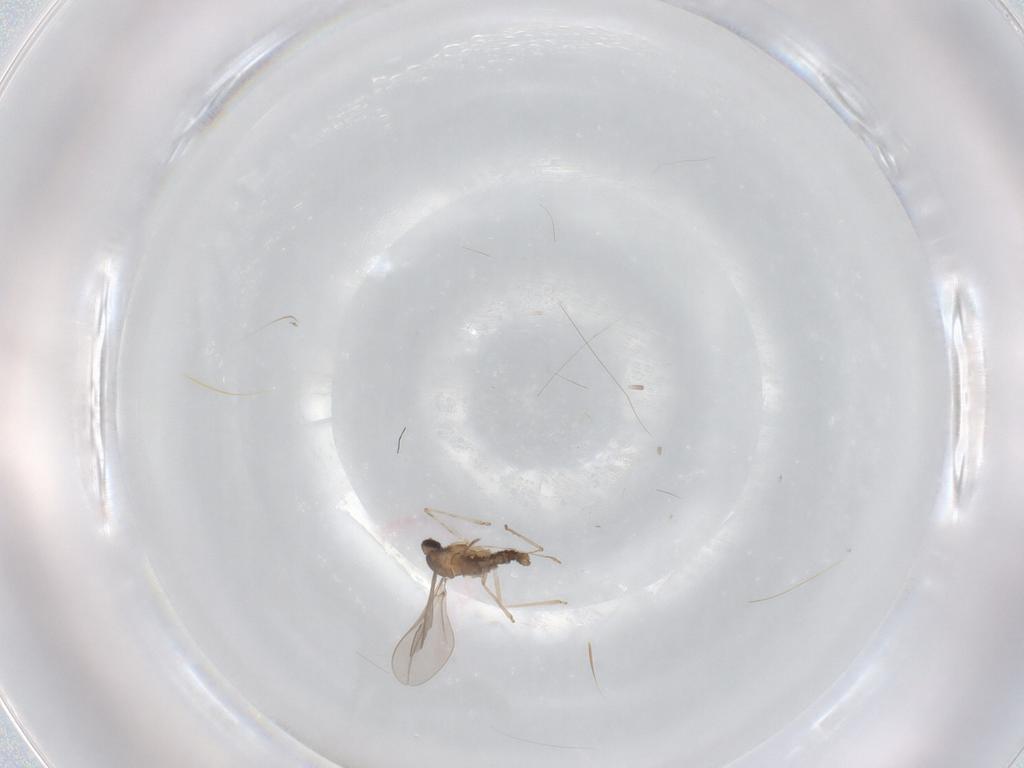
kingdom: Animalia
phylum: Arthropoda
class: Insecta
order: Diptera
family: Cecidomyiidae
